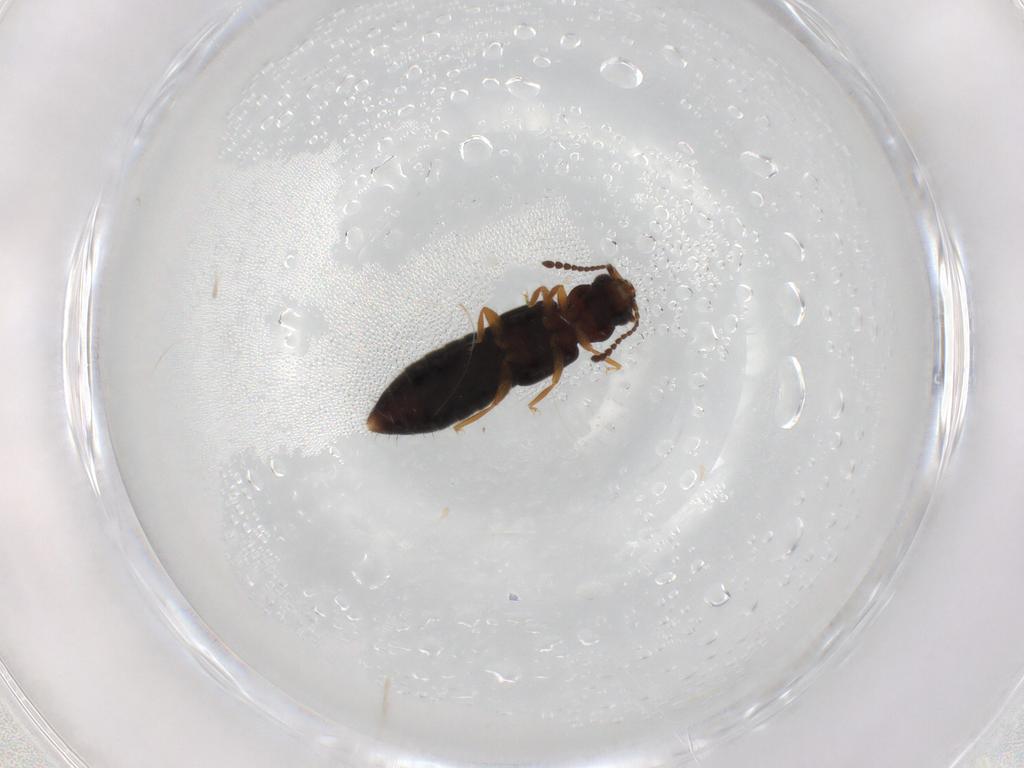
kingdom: Animalia
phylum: Arthropoda
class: Insecta
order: Coleoptera
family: Staphylinidae
